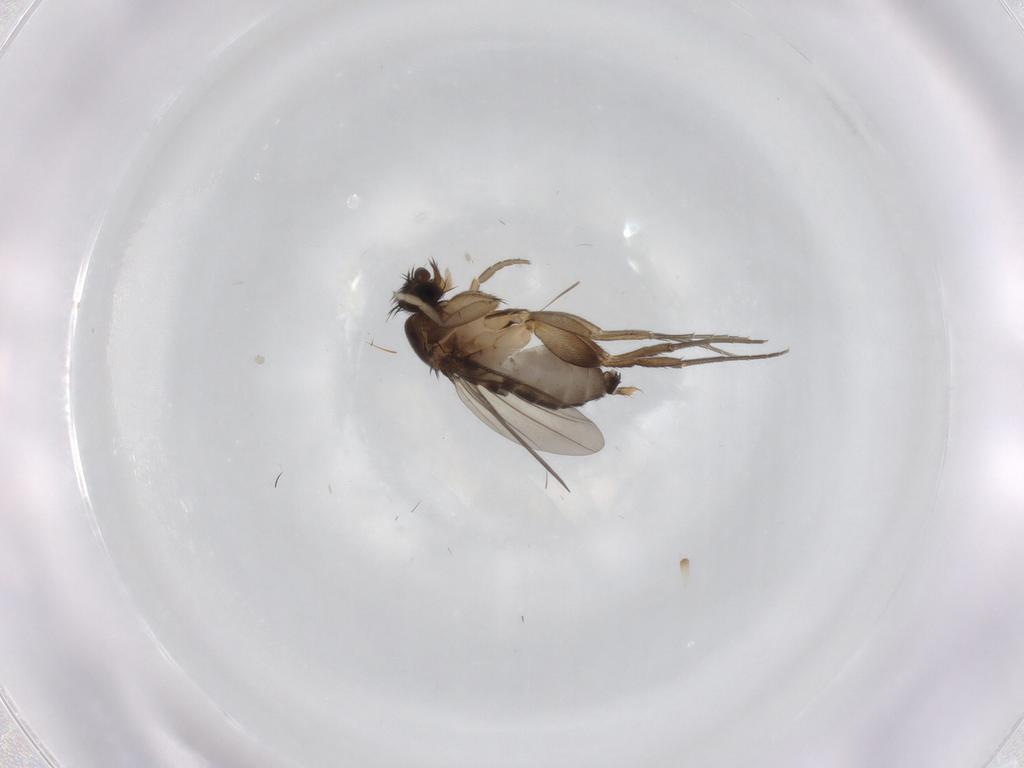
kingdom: Animalia
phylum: Arthropoda
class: Insecta
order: Diptera
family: Phoridae
